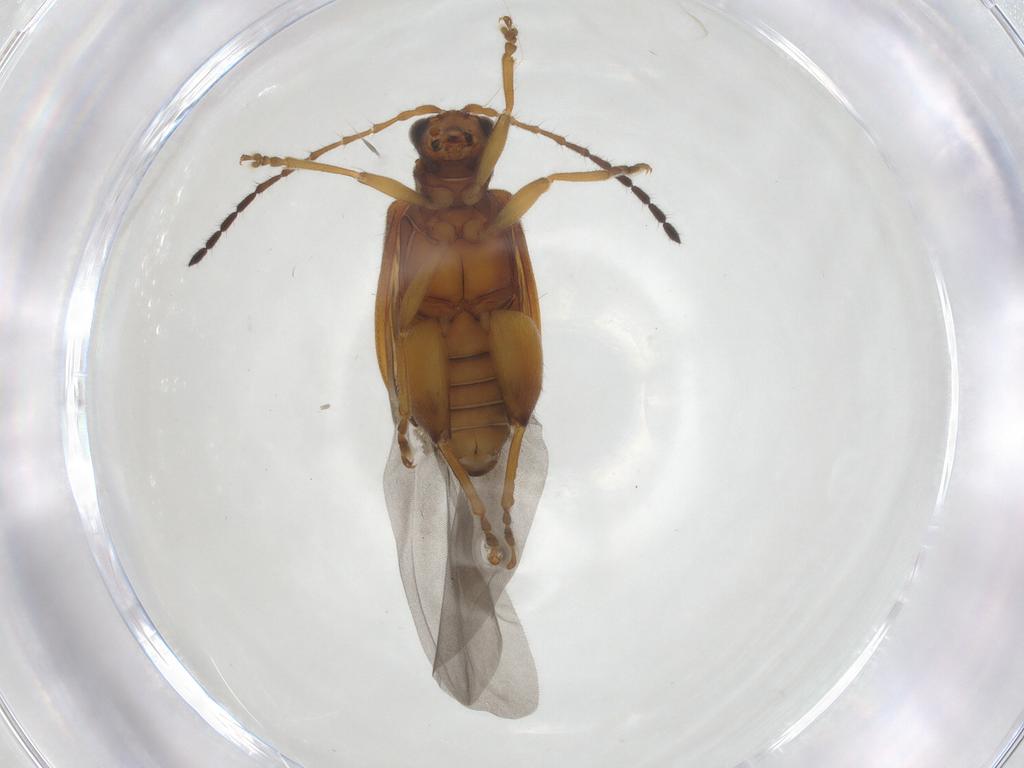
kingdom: Animalia
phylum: Arthropoda
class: Insecta
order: Coleoptera
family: Chrysomelidae
